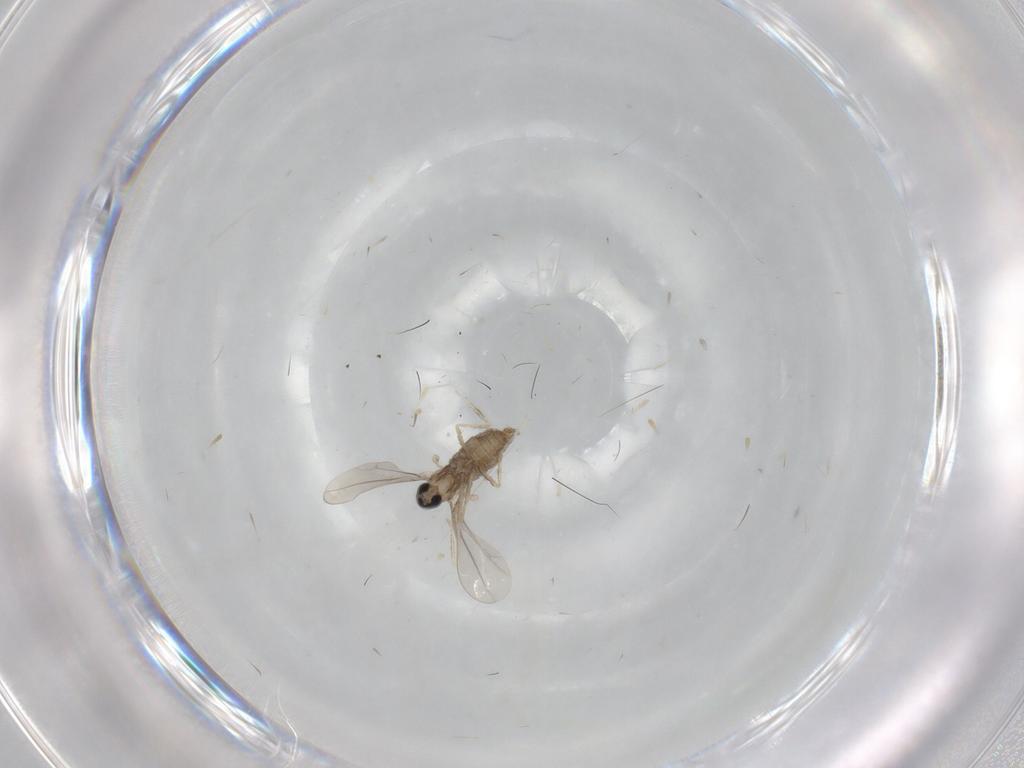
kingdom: Animalia
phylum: Arthropoda
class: Insecta
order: Diptera
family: Cecidomyiidae
